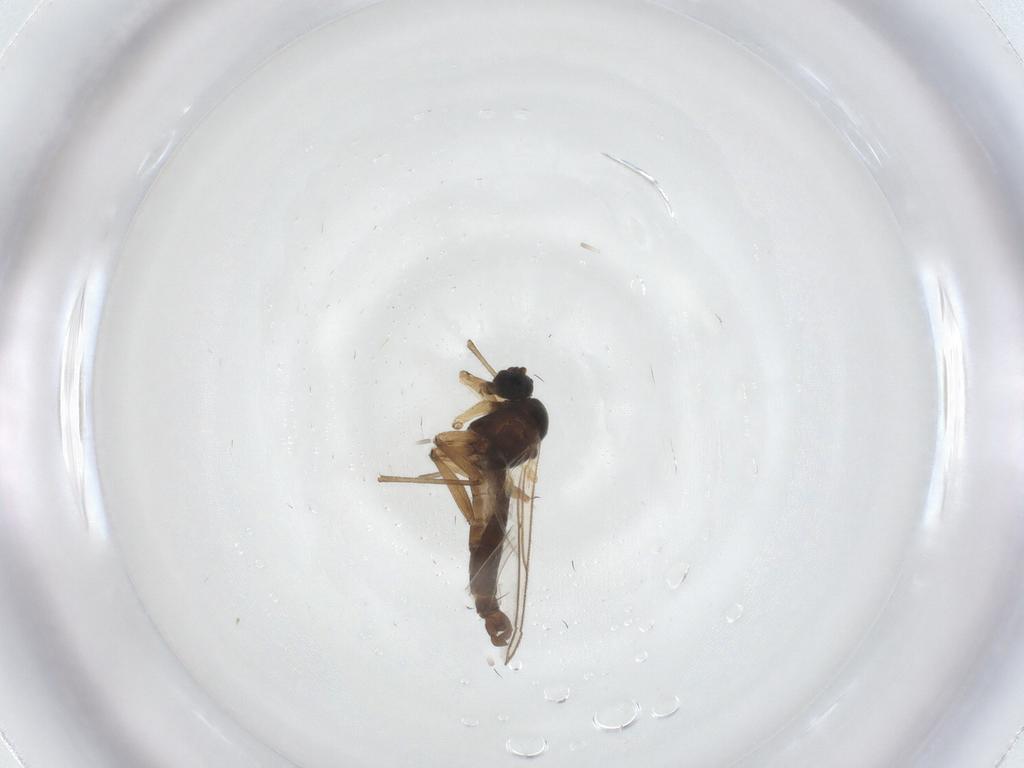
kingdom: Animalia
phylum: Arthropoda
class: Insecta
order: Diptera
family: Sciaridae
